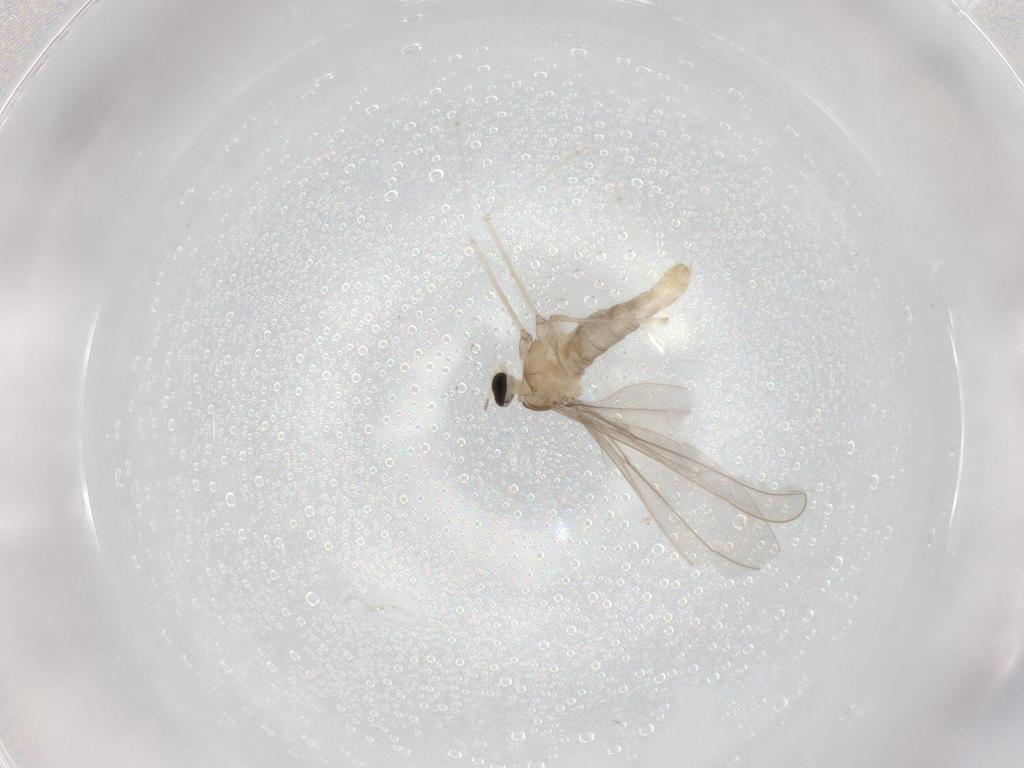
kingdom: Animalia
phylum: Arthropoda
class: Insecta
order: Diptera
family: Cecidomyiidae
